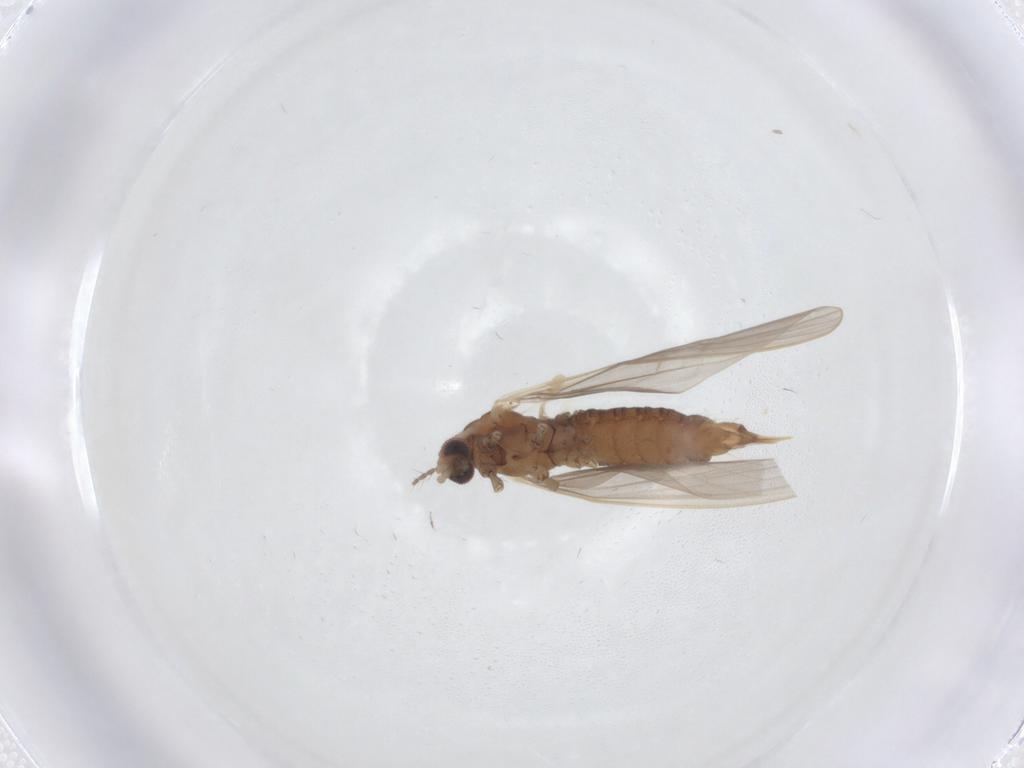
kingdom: Animalia
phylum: Arthropoda
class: Insecta
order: Diptera
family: Limoniidae
